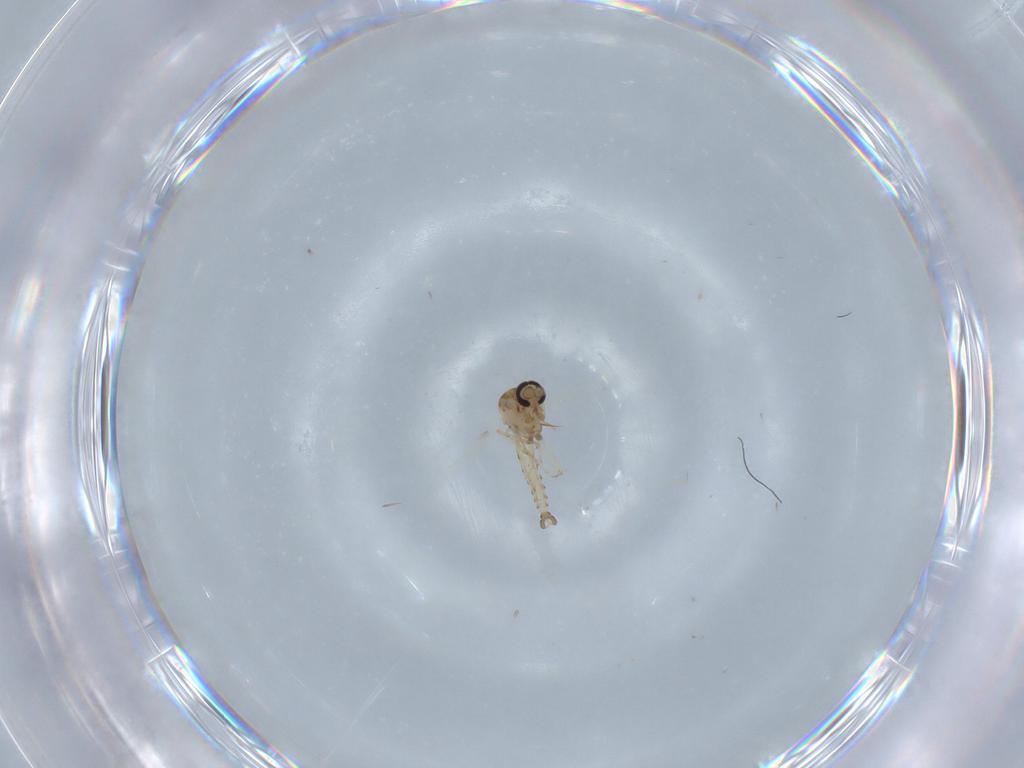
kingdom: Animalia
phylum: Arthropoda
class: Insecta
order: Diptera
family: Ceratopogonidae
